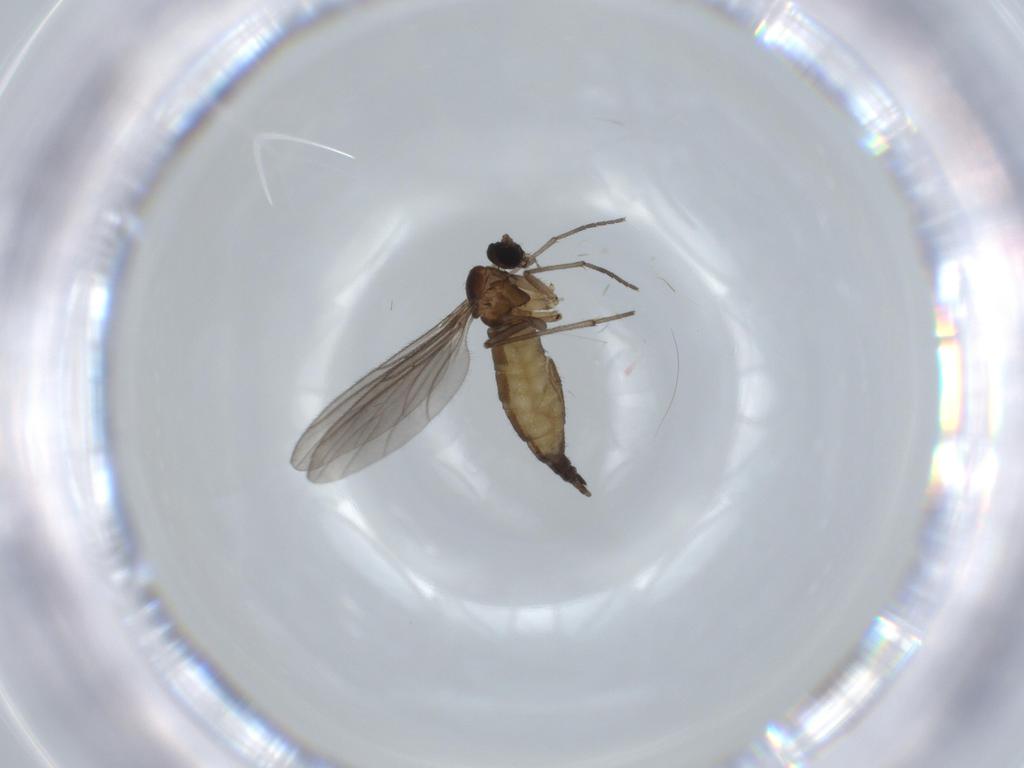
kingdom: Animalia
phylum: Arthropoda
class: Insecta
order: Diptera
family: Sciaridae
